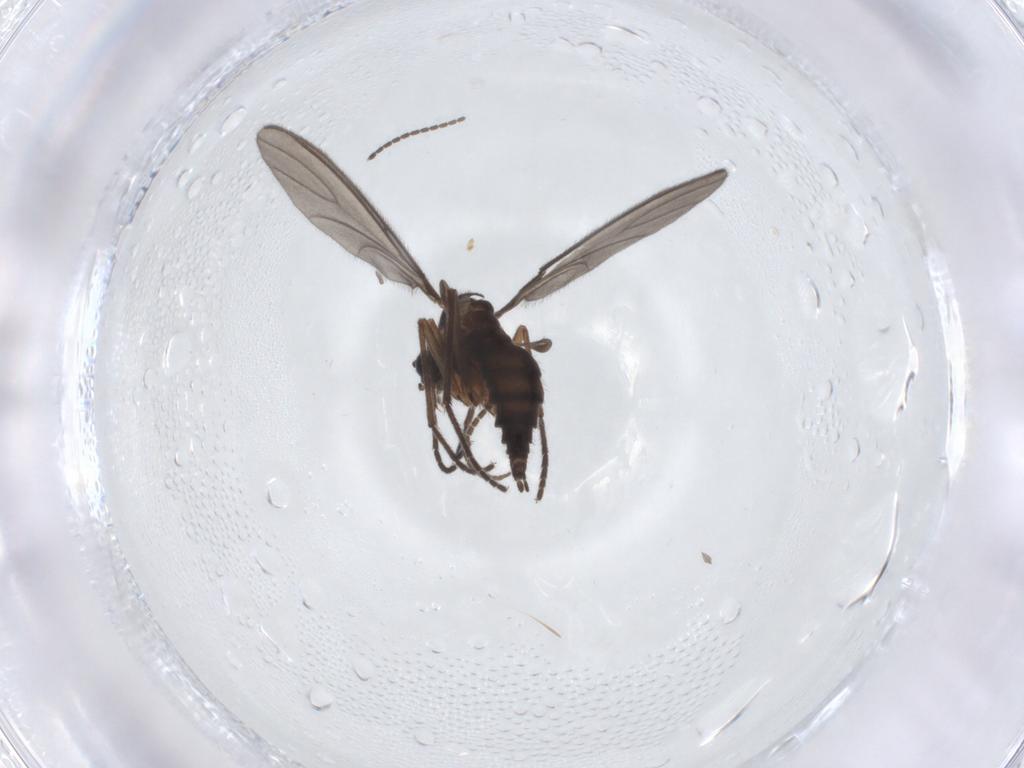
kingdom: Animalia
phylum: Arthropoda
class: Insecta
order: Diptera
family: Sciaridae
